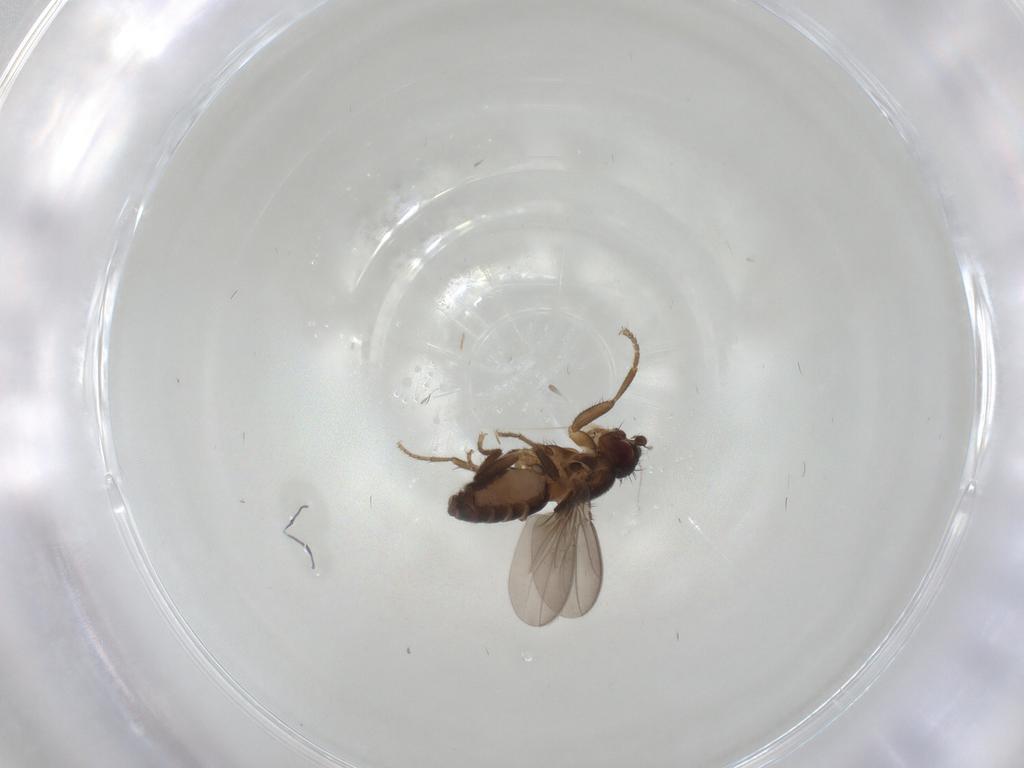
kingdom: Animalia
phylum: Arthropoda
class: Insecta
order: Diptera
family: Sphaeroceridae
